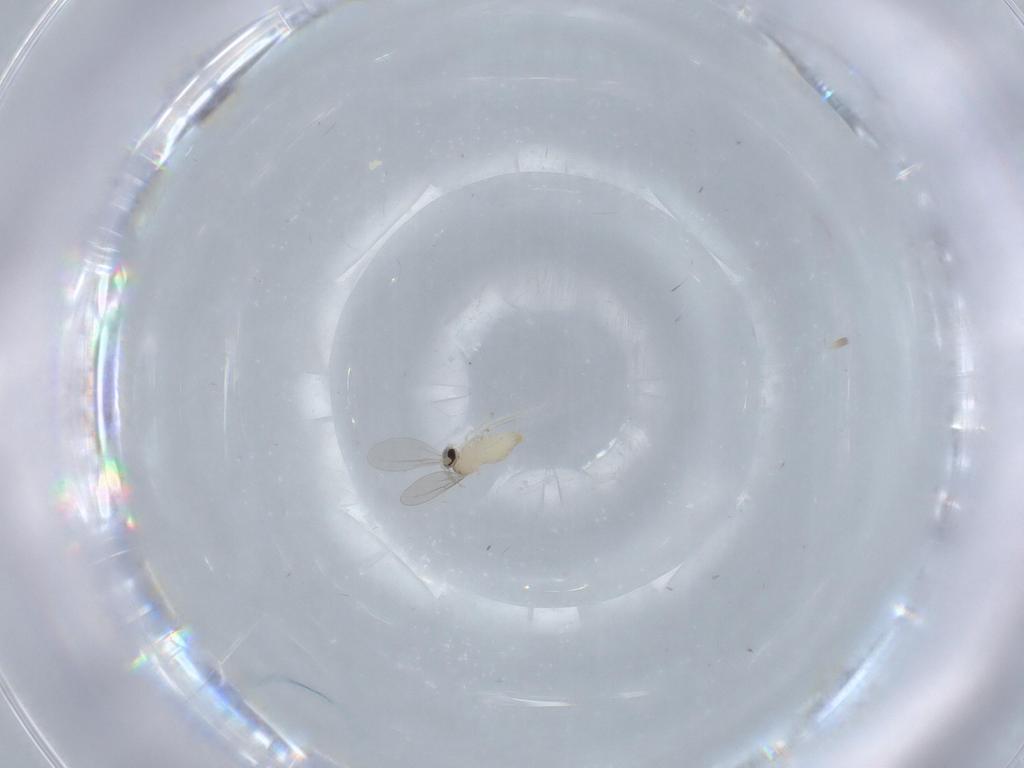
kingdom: Animalia
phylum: Arthropoda
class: Insecta
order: Diptera
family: Cecidomyiidae
